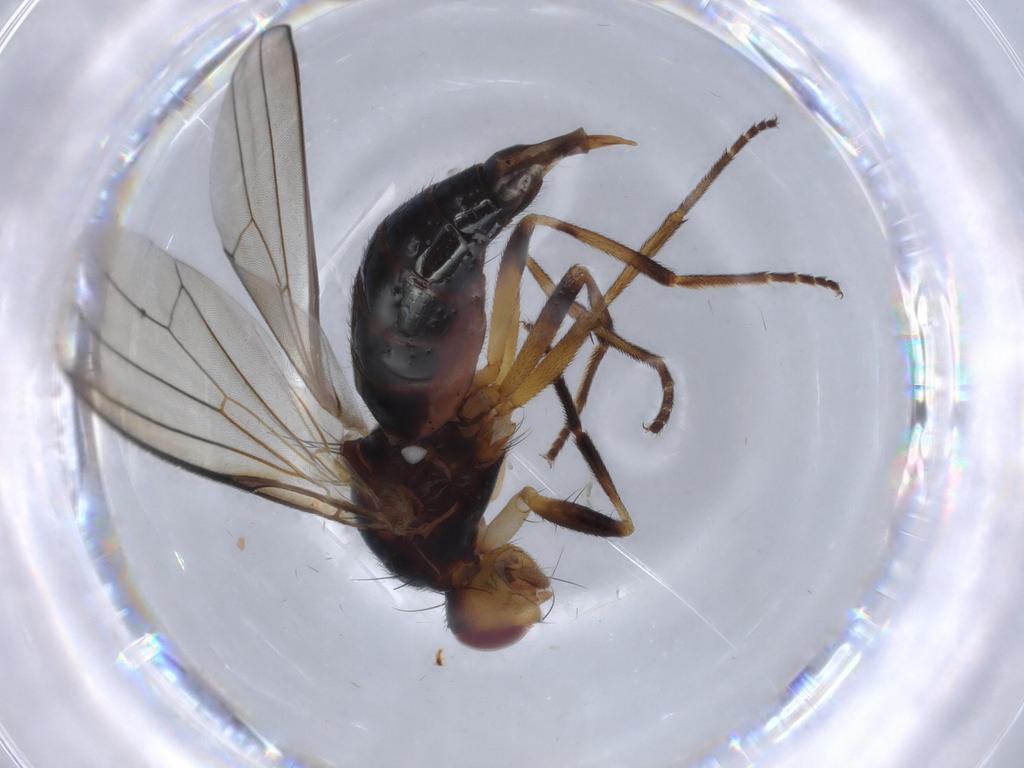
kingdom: Animalia
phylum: Arthropoda
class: Insecta
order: Diptera
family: Tachinidae
